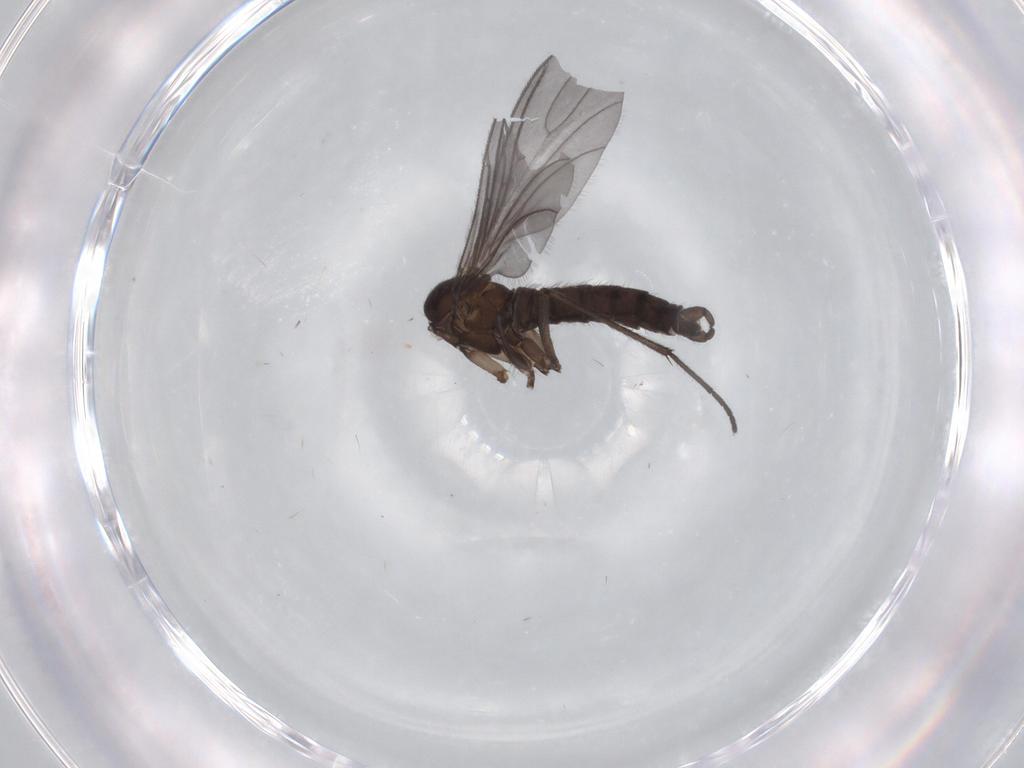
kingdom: Animalia
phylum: Arthropoda
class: Insecta
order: Diptera
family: Sciaridae
